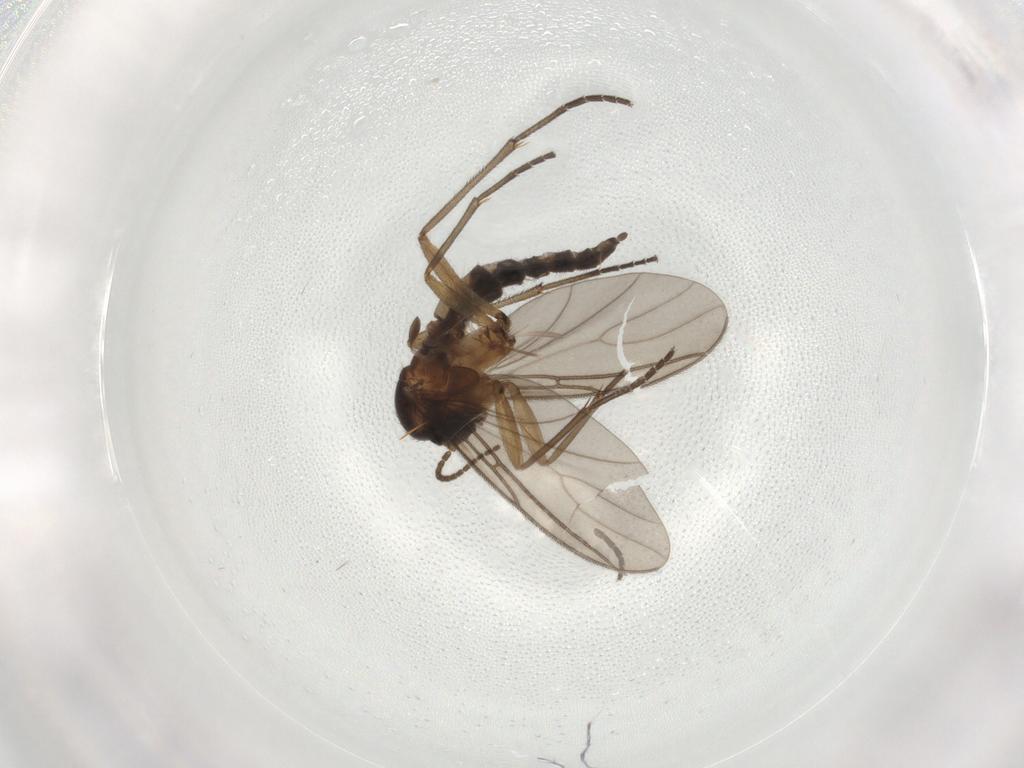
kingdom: Animalia
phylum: Arthropoda
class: Insecta
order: Diptera
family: Sciaridae
